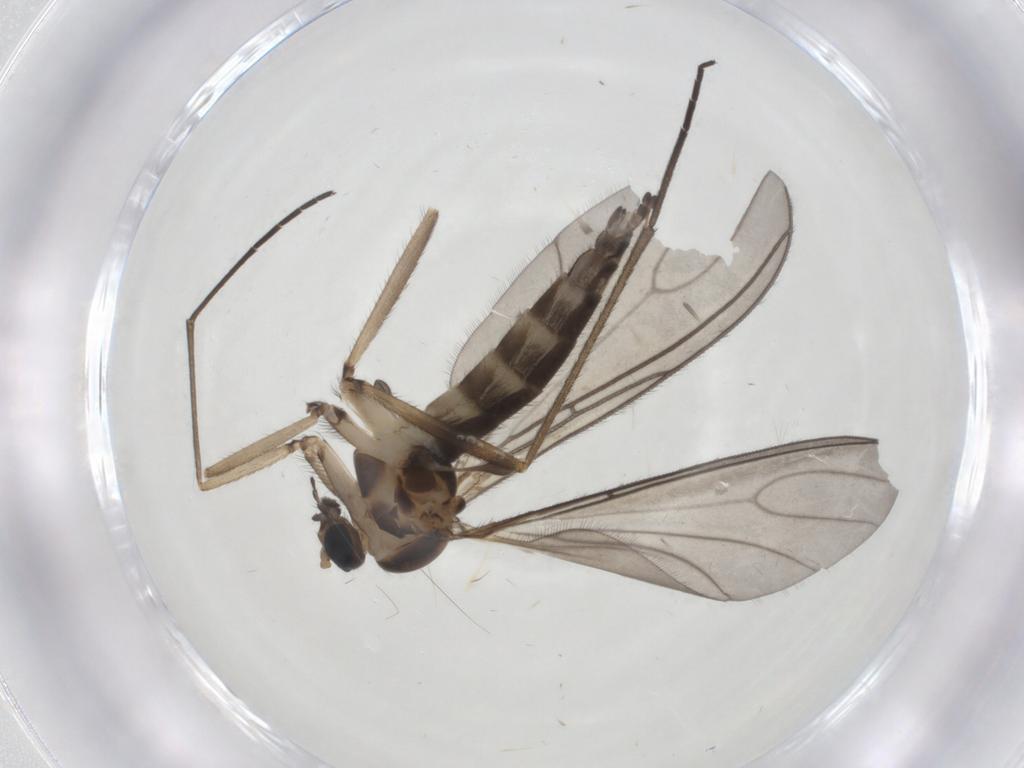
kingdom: Animalia
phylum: Arthropoda
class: Insecta
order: Diptera
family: Sciaridae
